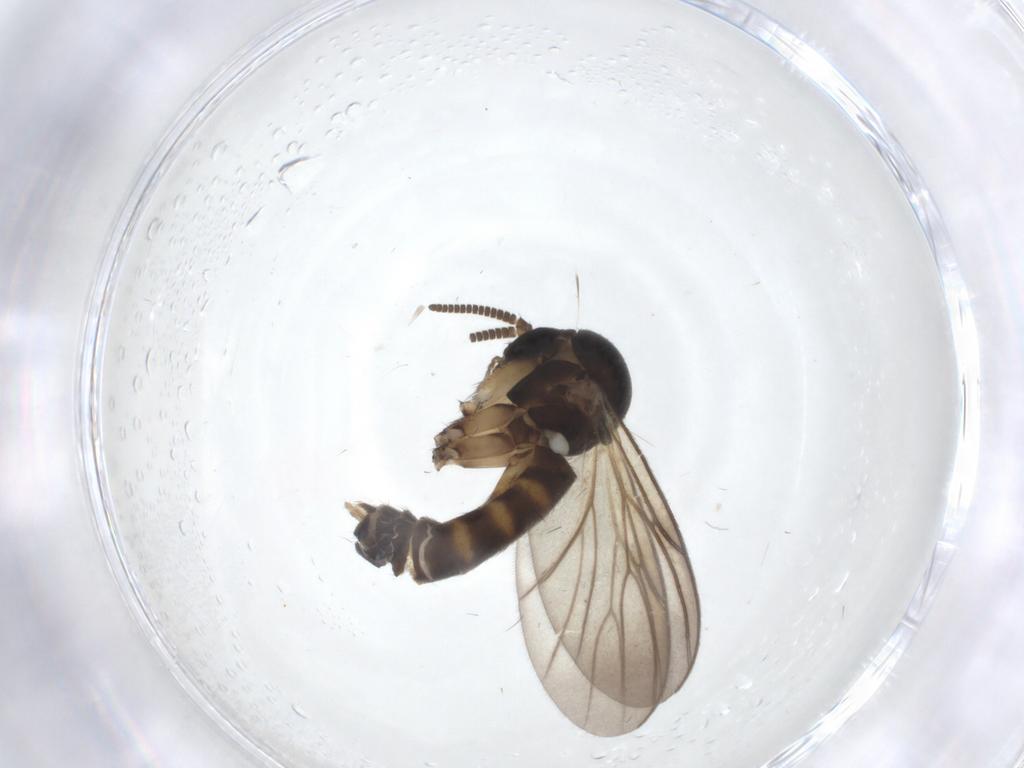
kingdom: Animalia
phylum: Arthropoda
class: Insecta
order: Diptera
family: Mycetophilidae
